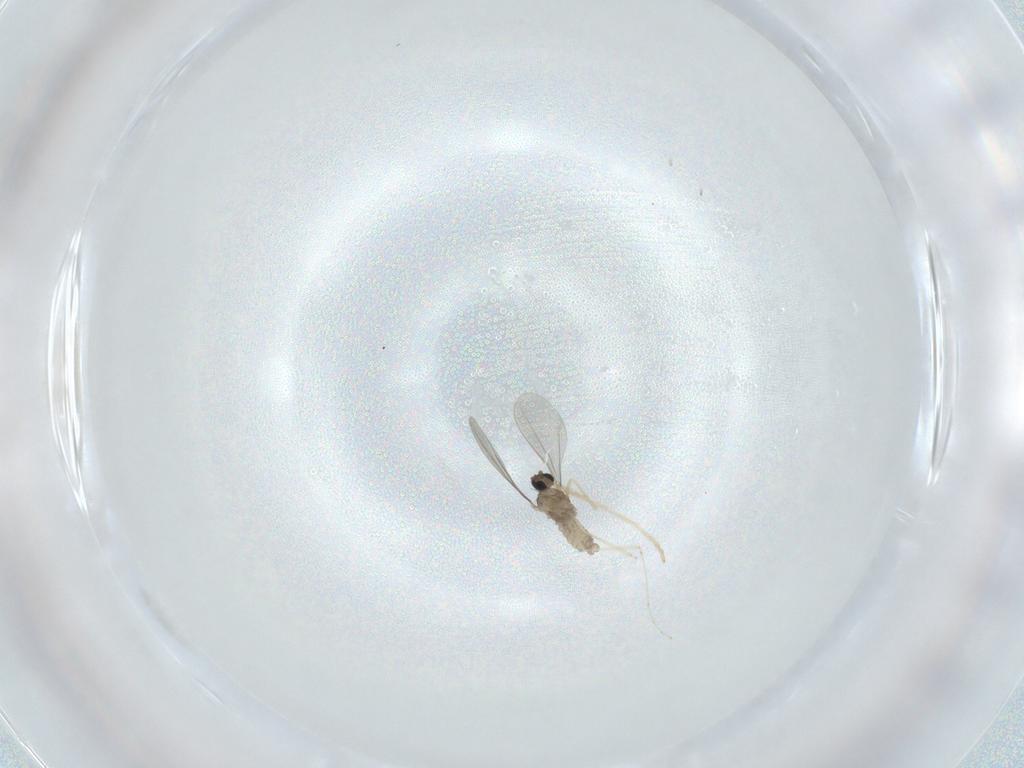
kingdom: Animalia
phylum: Arthropoda
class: Insecta
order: Diptera
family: Chironomidae
